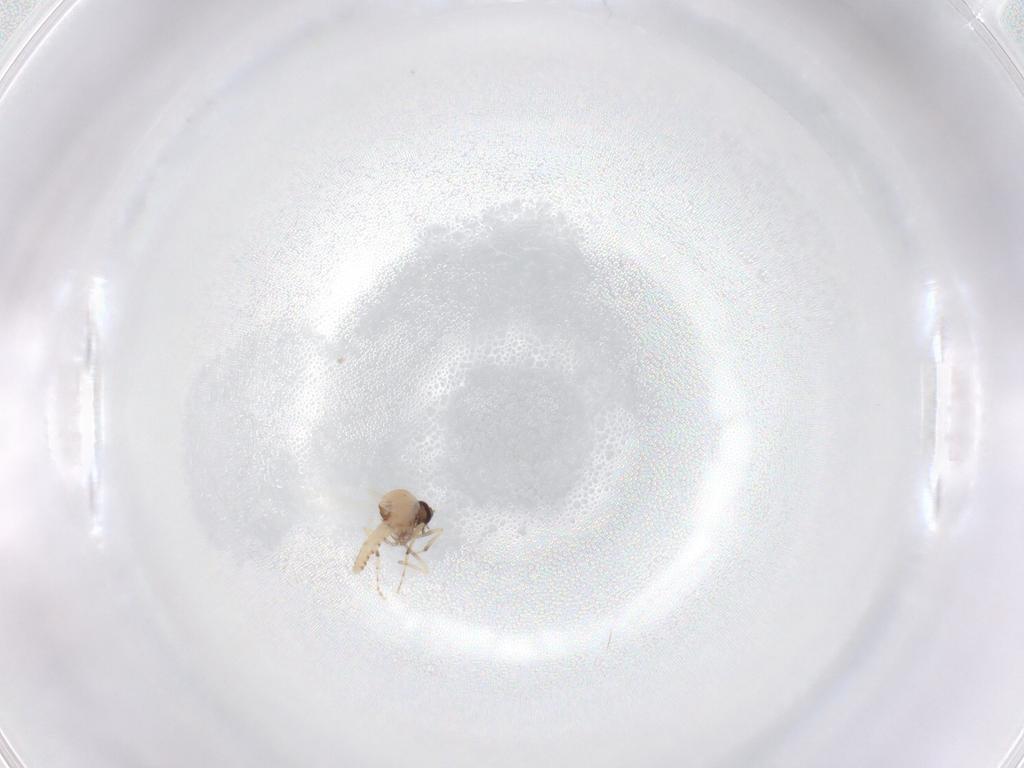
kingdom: Animalia
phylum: Arthropoda
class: Insecta
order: Diptera
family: Ceratopogonidae
